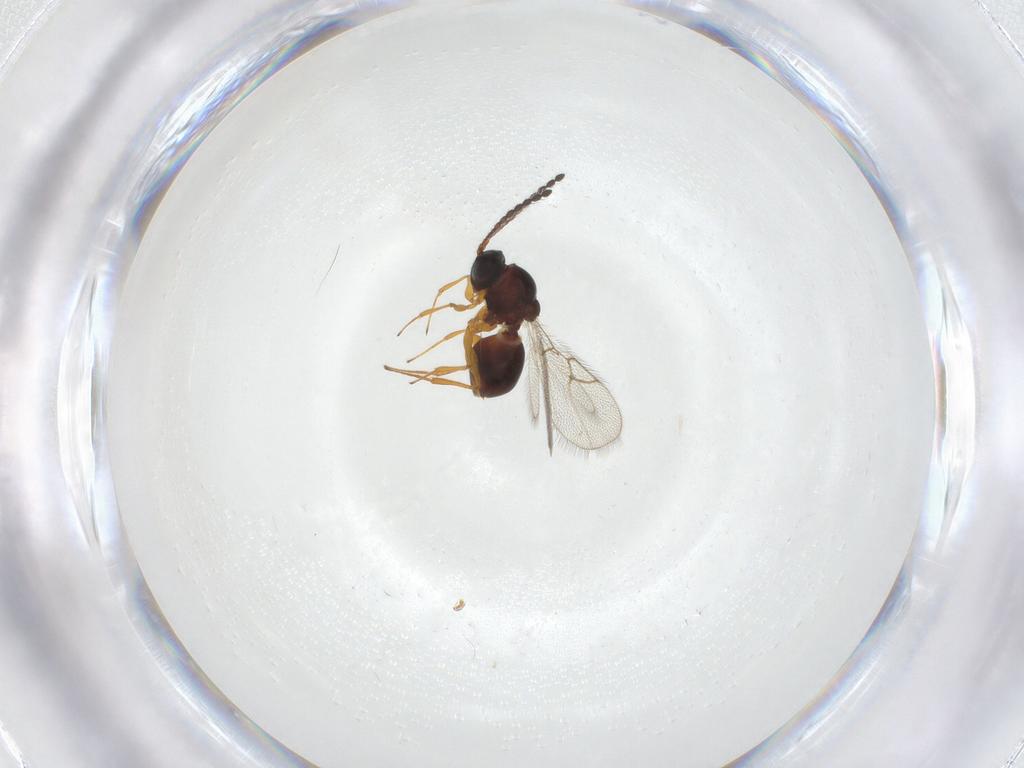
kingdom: Animalia
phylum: Arthropoda
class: Insecta
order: Hymenoptera
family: Figitidae
